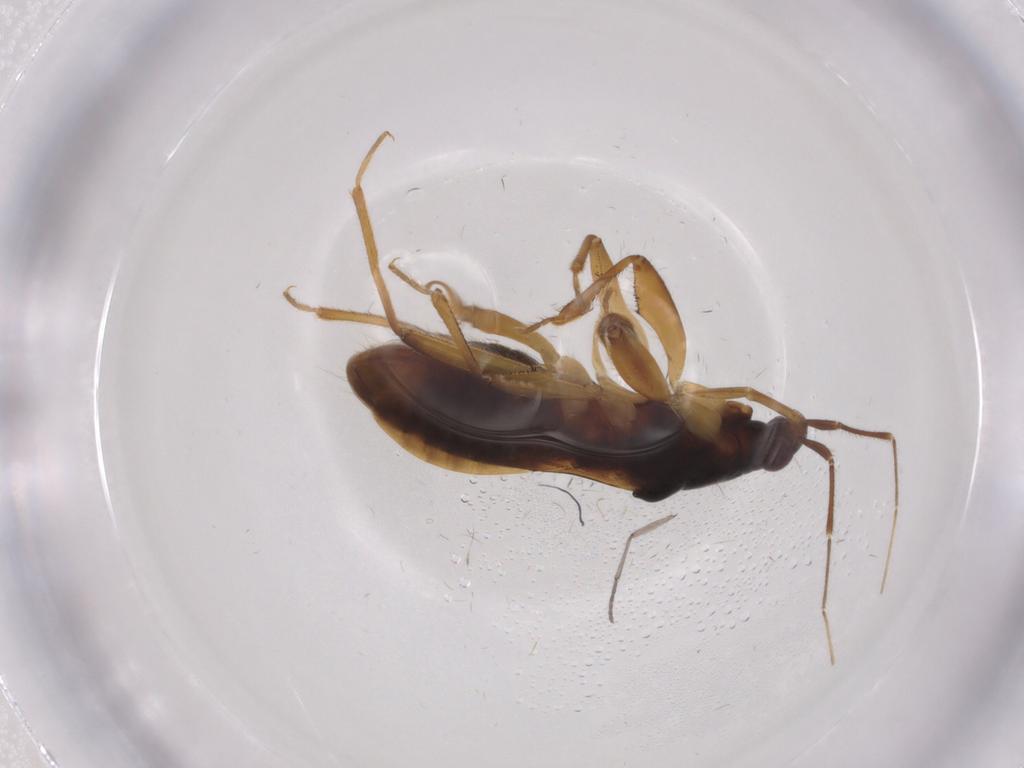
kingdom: Animalia
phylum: Arthropoda
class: Insecta
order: Hemiptera
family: Nabidae
